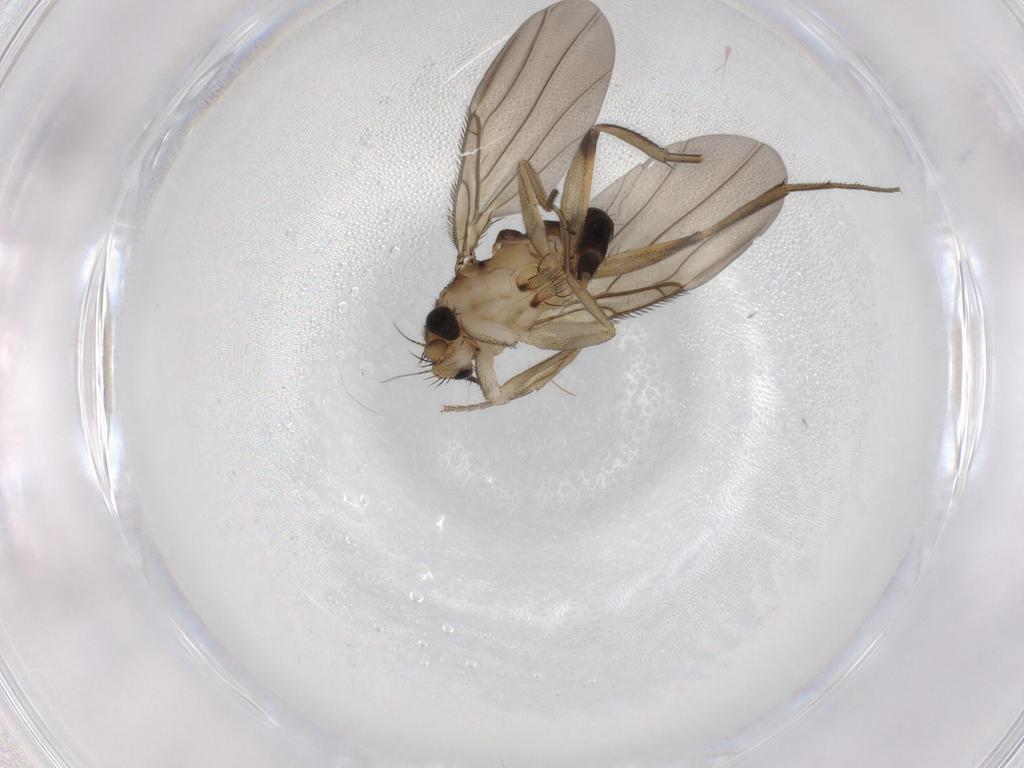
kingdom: Animalia
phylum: Arthropoda
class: Insecta
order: Diptera
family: Phoridae
